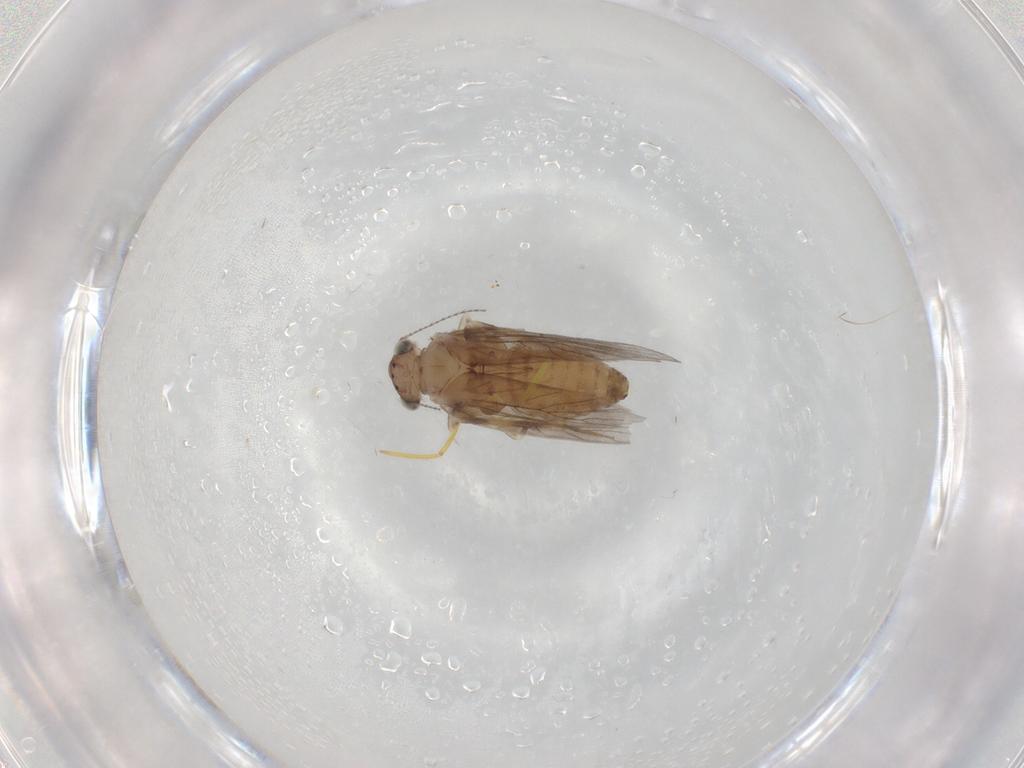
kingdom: Animalia
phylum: Arthropoda
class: Insecta
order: Psocodea
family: Lepidopsocidae
